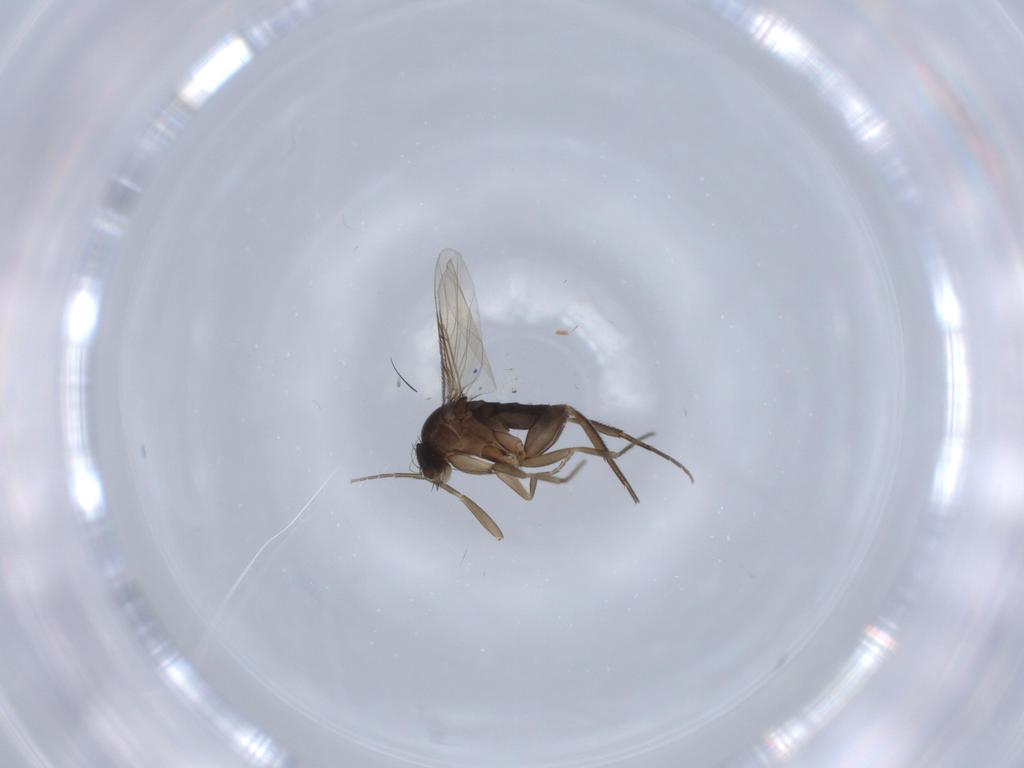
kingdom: Animalia
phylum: Arthropoda
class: Insecta
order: Diptera
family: Phoridae
